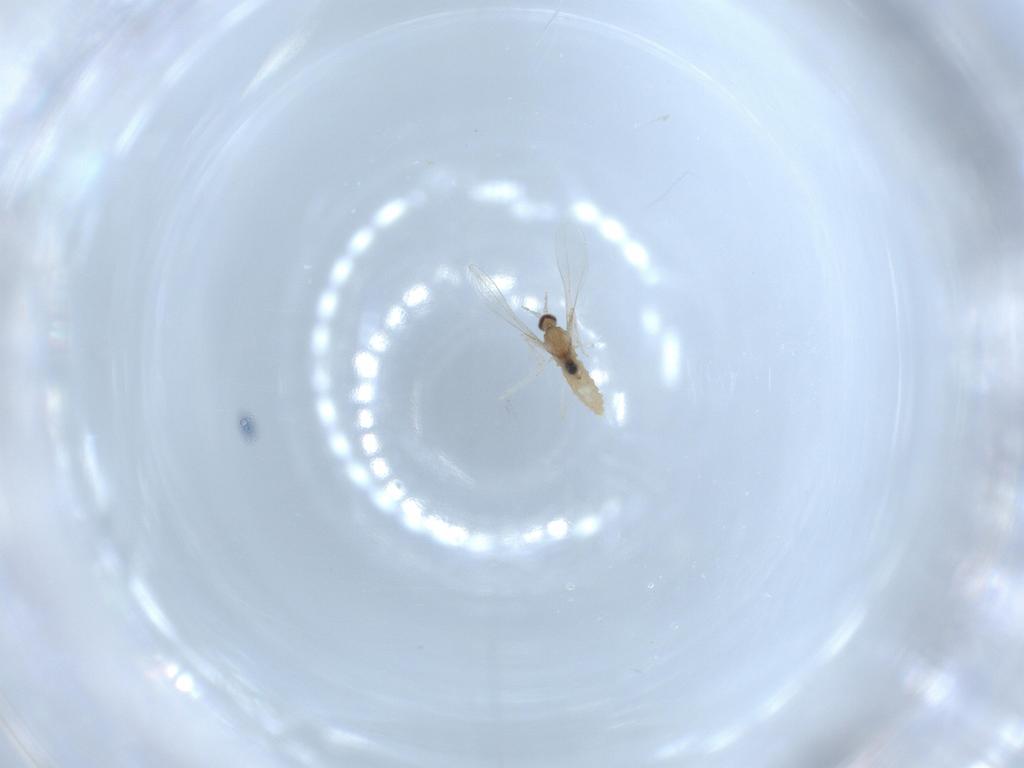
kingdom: Animalia
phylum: Arthropoda
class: Insecta
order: Diptera
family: Cecidomyiidae
